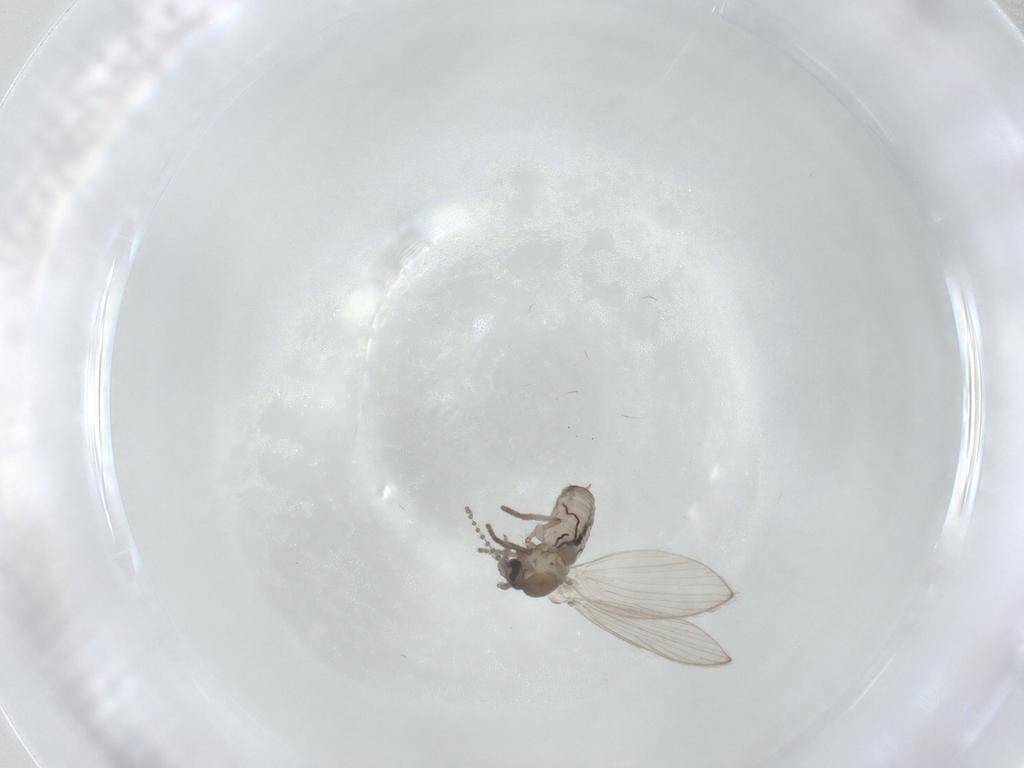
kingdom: Animalia
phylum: Arthropoda
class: Insecta
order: Diptera
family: Psychodidae
